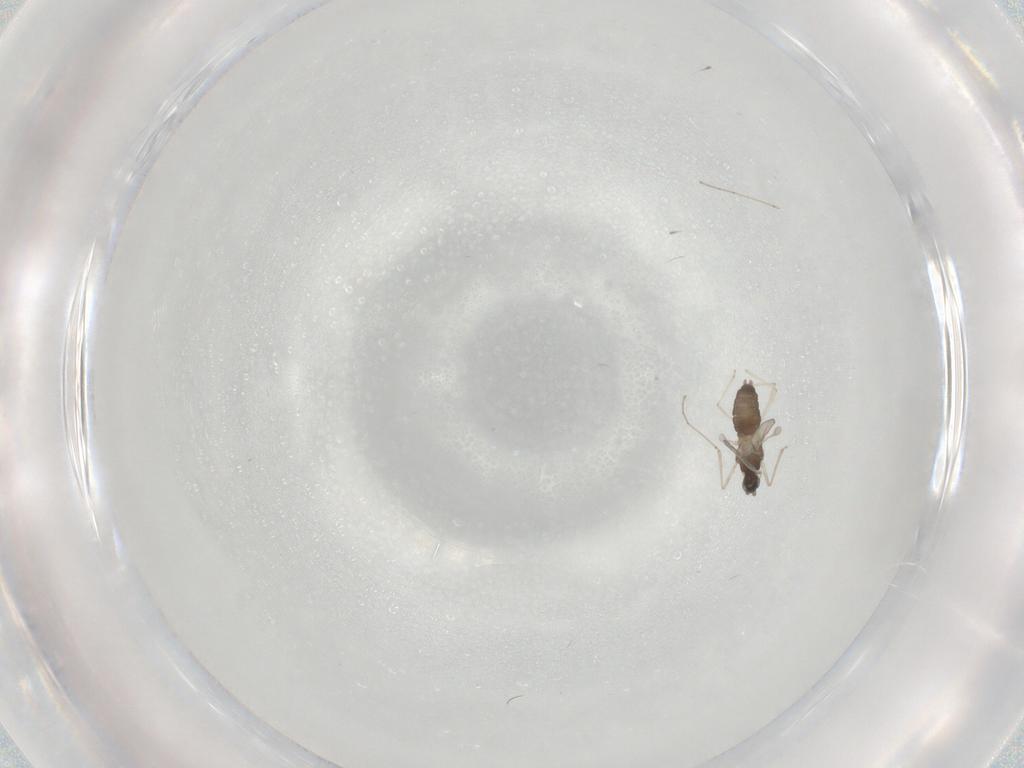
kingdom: Animalia
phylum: Arthropoda
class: Insecta
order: Diptera
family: Cecidomyiidae
